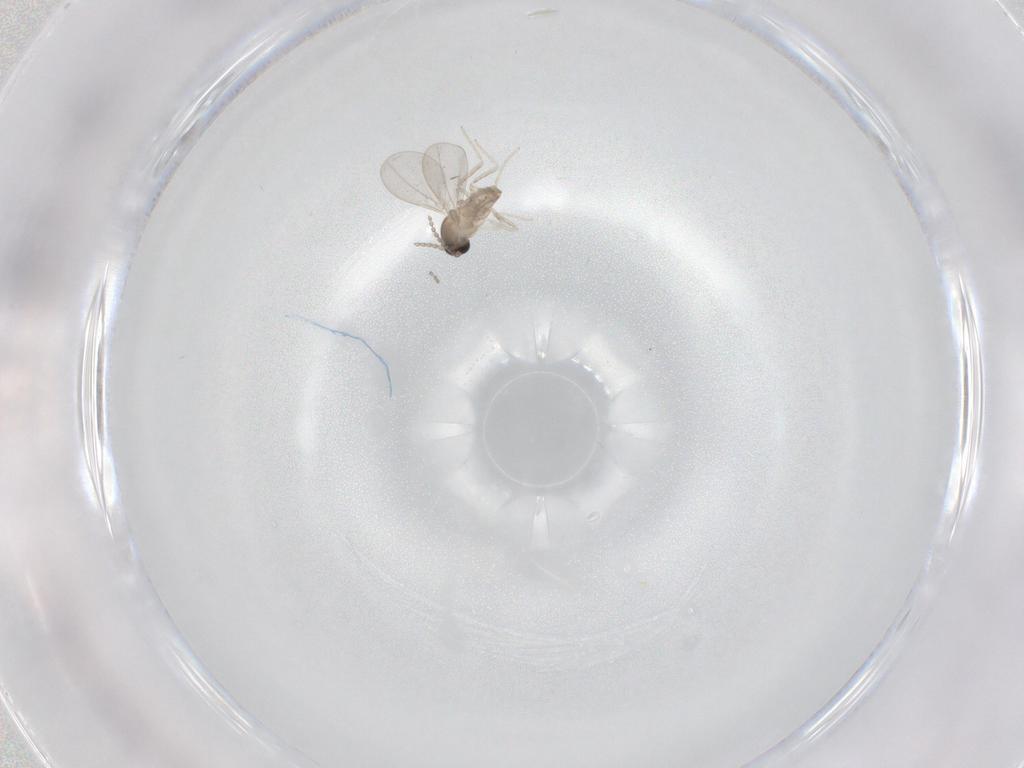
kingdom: Animalia
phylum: Arthropoda
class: Insecta
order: Diptera
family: Cecidomyiidae
